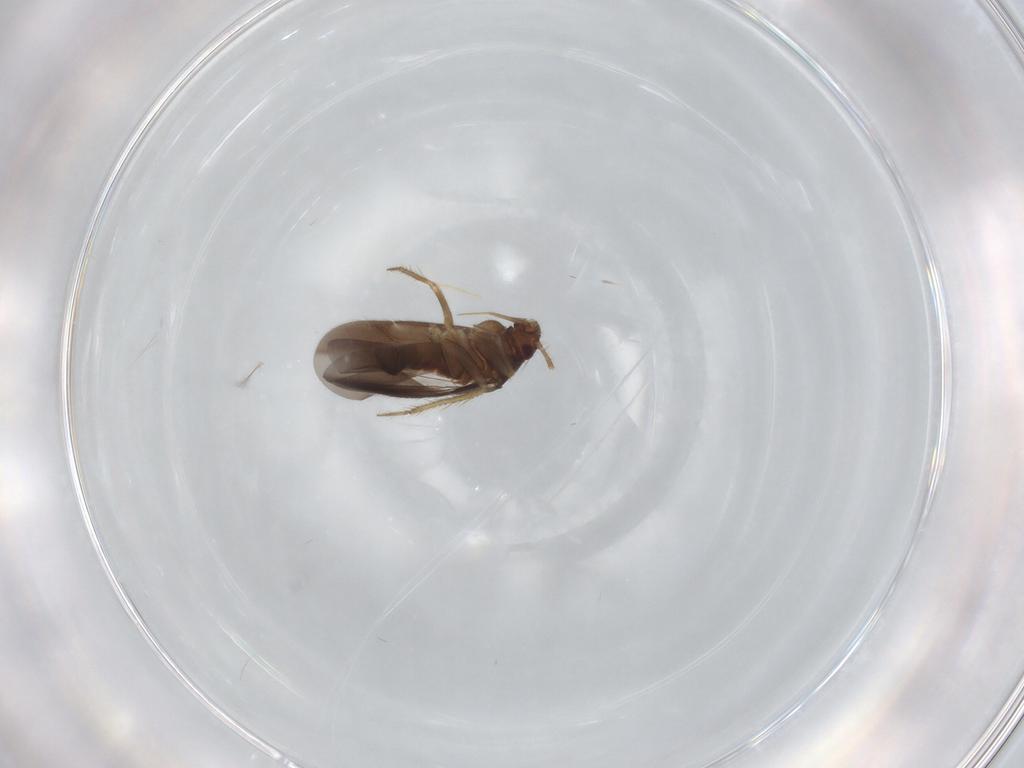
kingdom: Animalia
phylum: Arthropoda
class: Insecta
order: Hemiptera
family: Ceratocombidae
